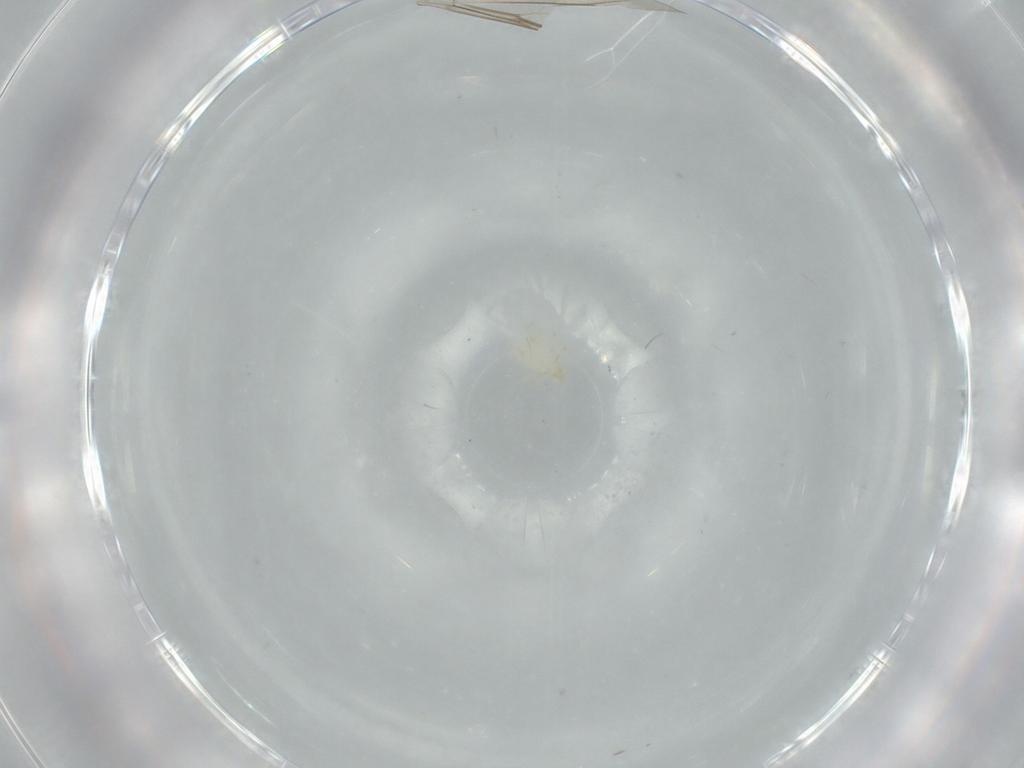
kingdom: Animalia
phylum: Arthropoda
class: Arachnida
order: Trombidiformes
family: Erythraeidae
